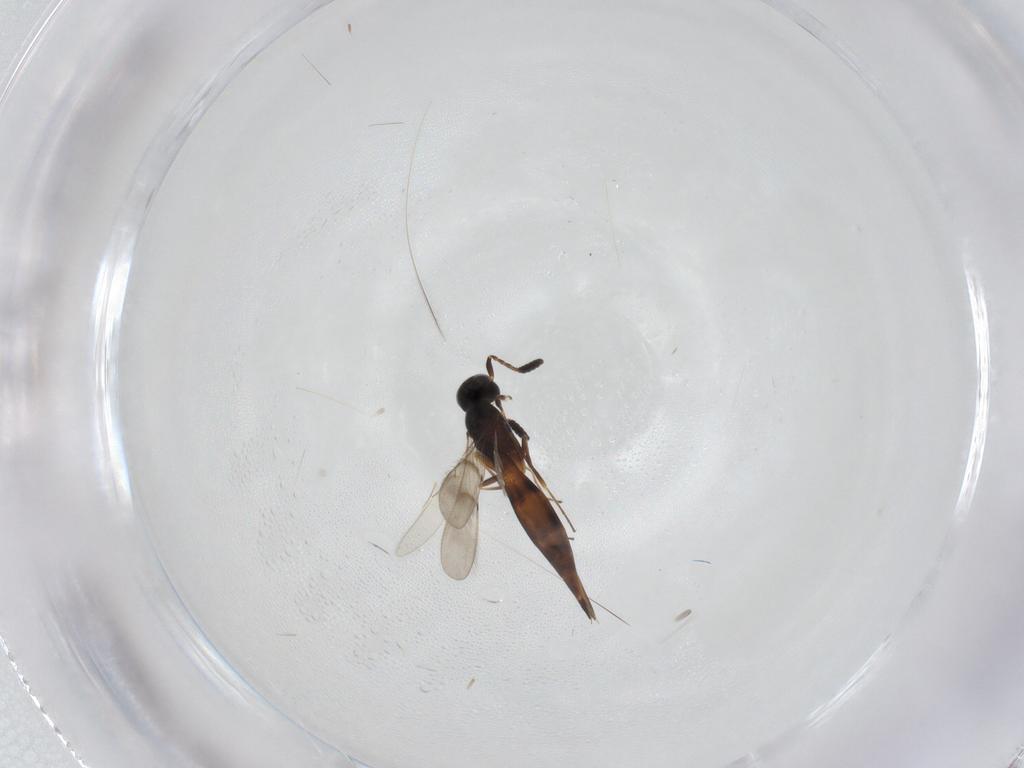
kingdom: Animalia
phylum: Arthropoda
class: Insecta
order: Hymenoptera
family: Scelionidae
